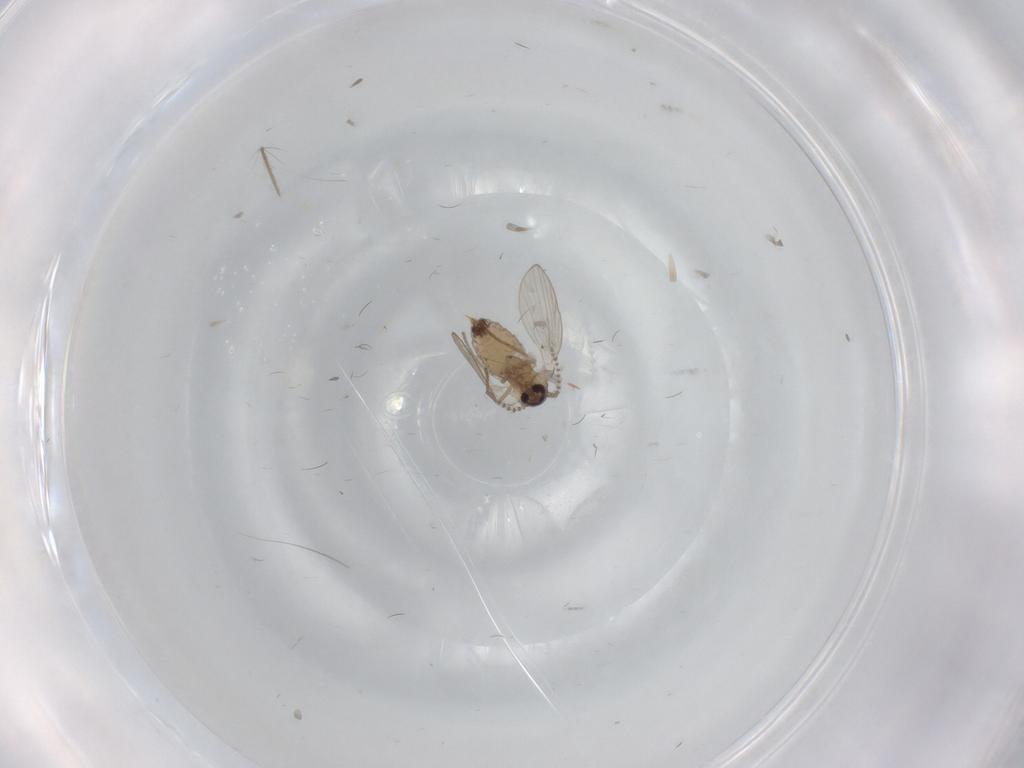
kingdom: Animalia
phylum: Arthropoda
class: Insecta
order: Diptera
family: Psychodidae
